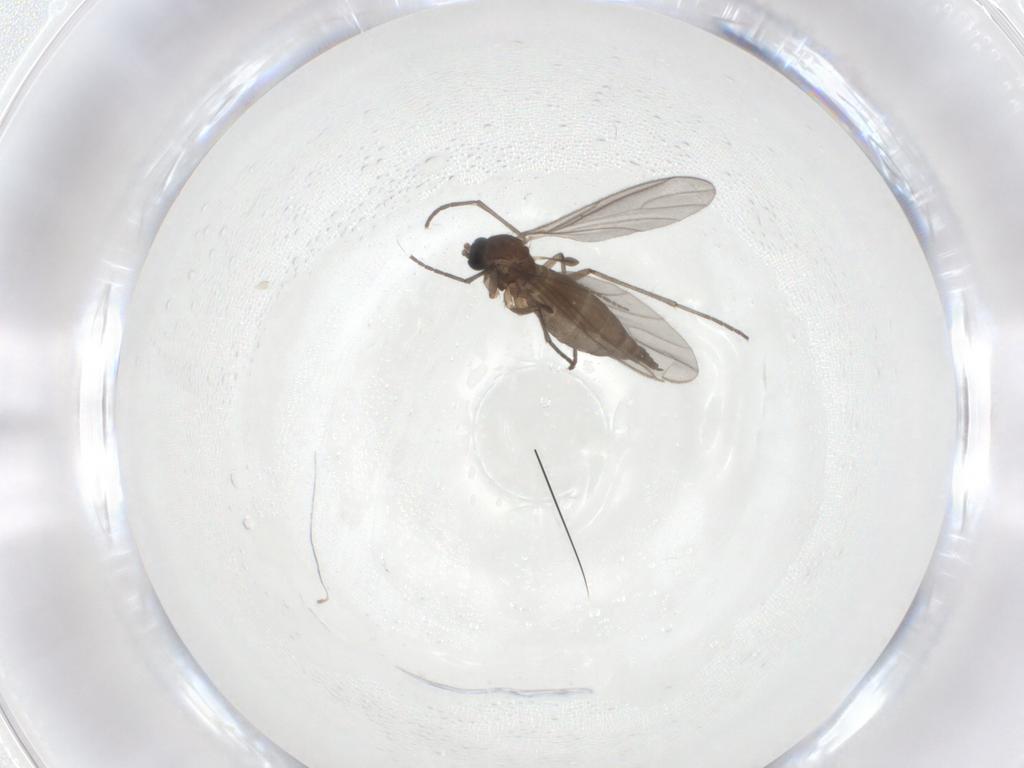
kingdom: Animalia
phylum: Arthropoda
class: Insecta
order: Diptera
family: Sciaridae
